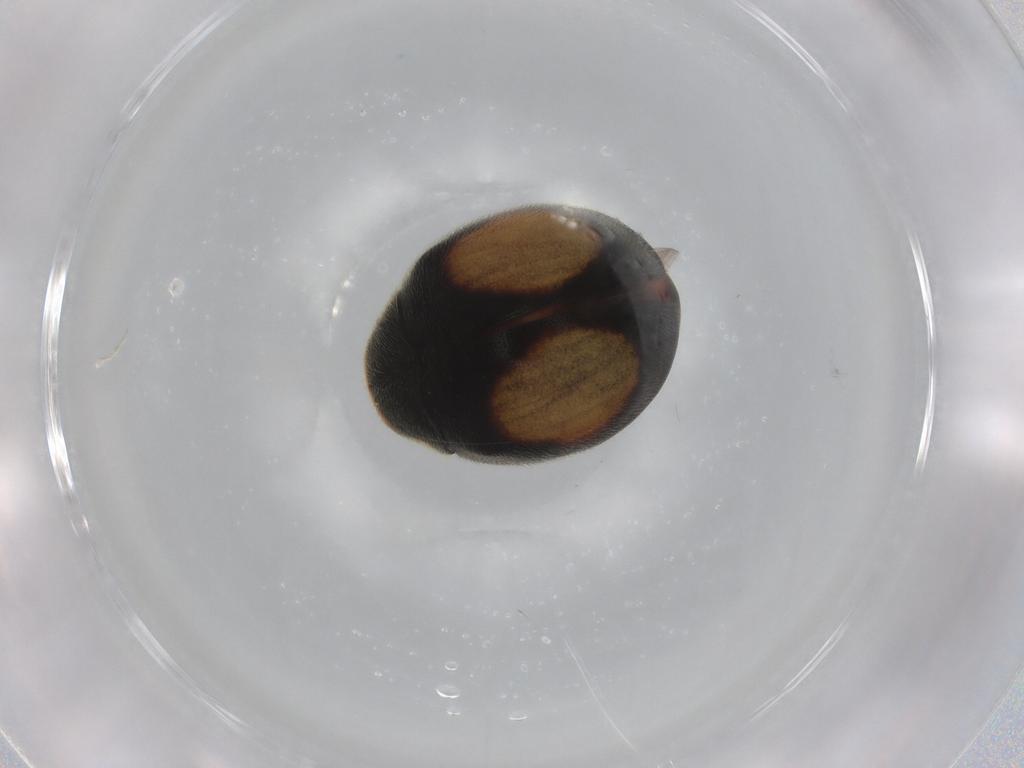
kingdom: Animalia
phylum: Arthropoda
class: Insecta
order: Coleoptera
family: Coccinellidae
